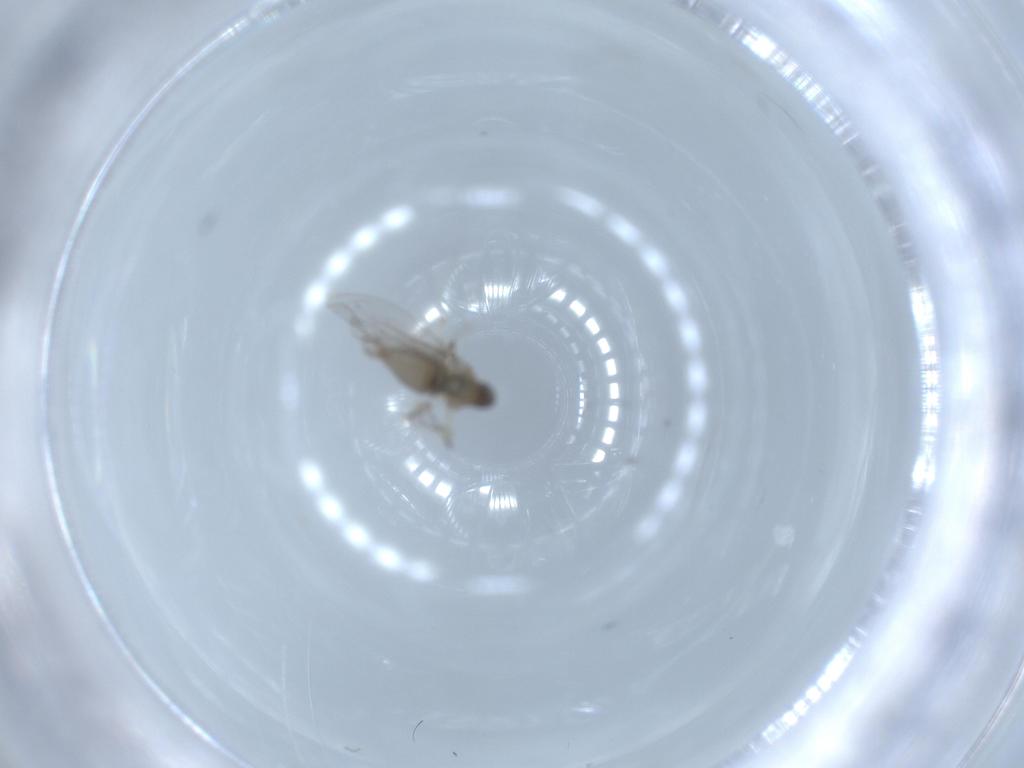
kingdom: Animalia
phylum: Arthropoda
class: Insecta
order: Diptera
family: Cecidomyiidae
